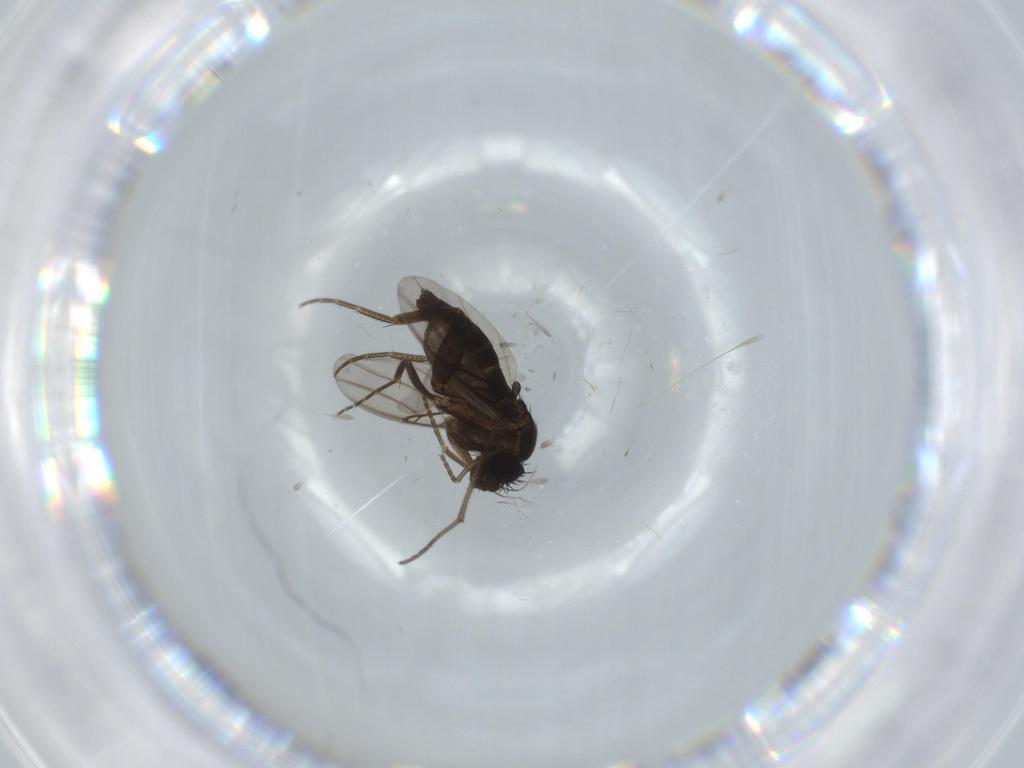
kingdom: Animalia
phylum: Arthropoda
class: Insecta
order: Diptera
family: Phoridae
